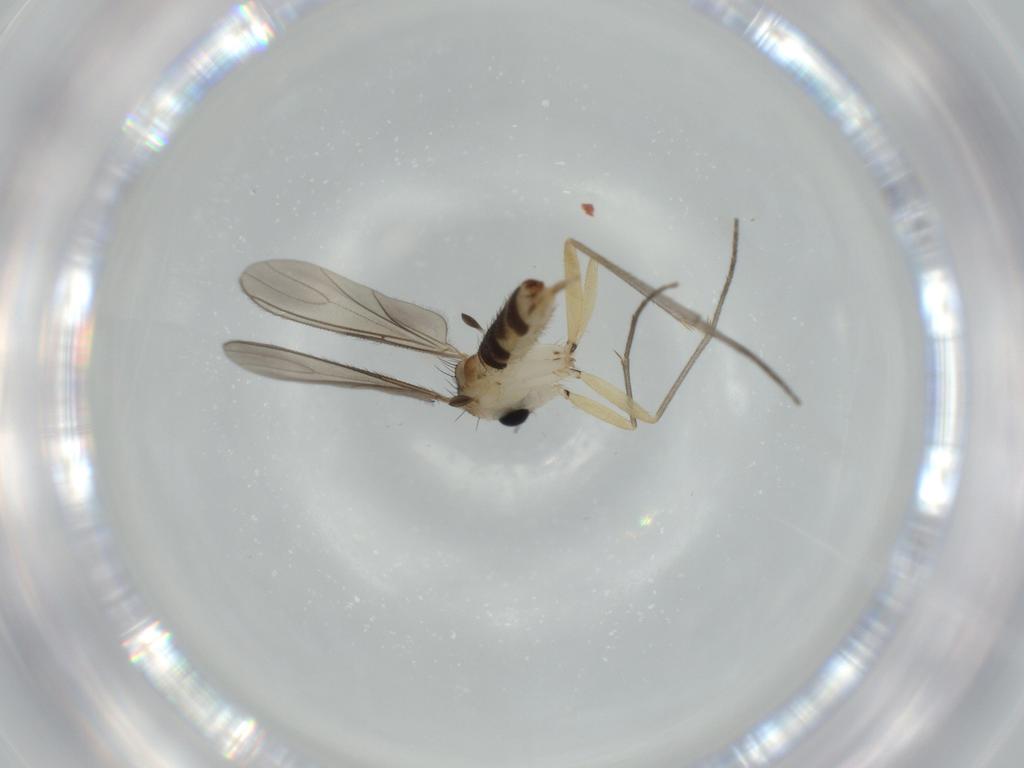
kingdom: Animalia
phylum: Arthropoda
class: Insecta
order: Diptera
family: Sciaridae
